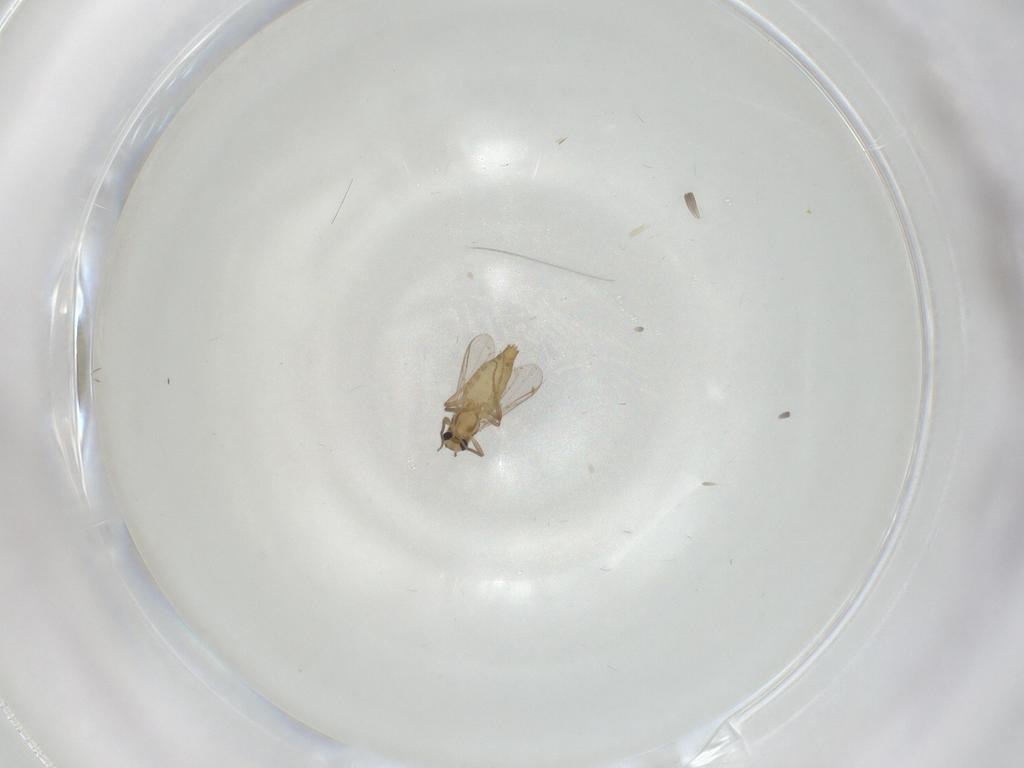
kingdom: Animalia
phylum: Arthropoda
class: Insecta
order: Diptera
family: Chironomidae
